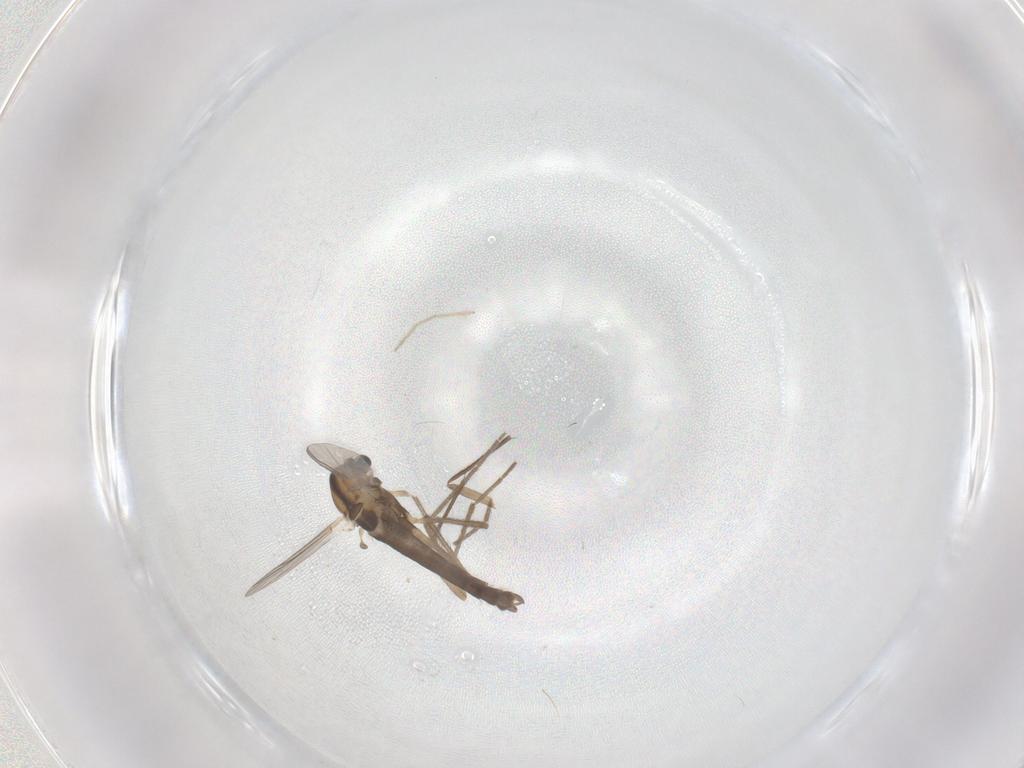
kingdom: Animalia
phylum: Arthropoda
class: Insecta
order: Diptera
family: Chironomidae
